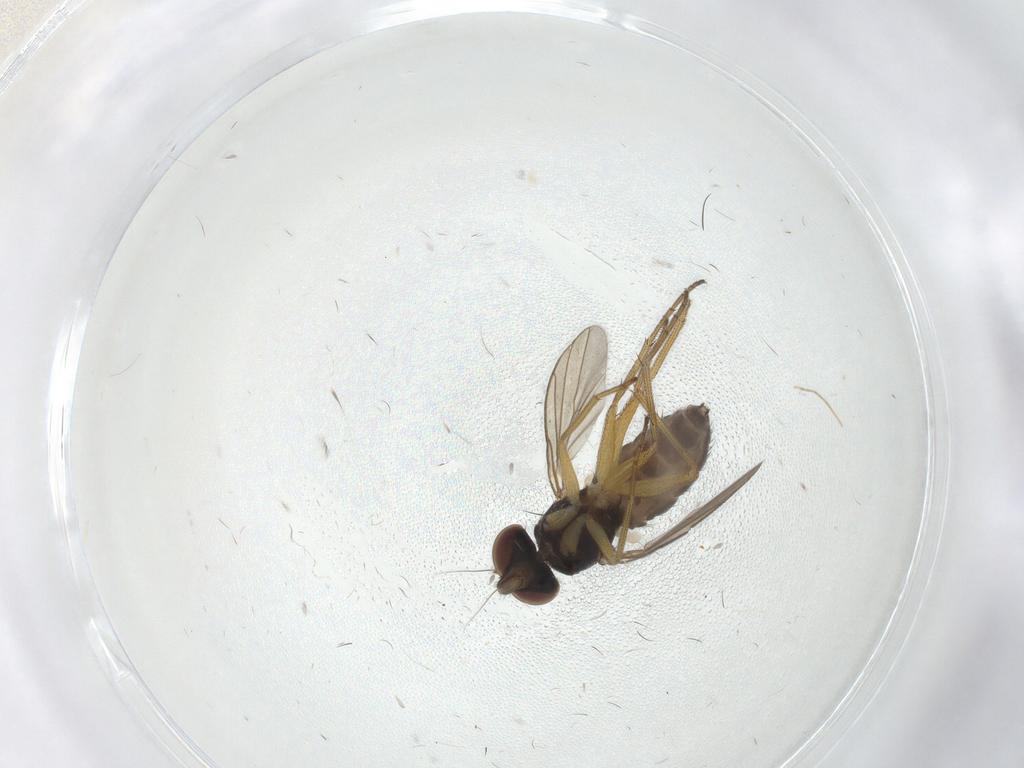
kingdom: Animalia
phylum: Arthropoda
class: Insecta
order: Diptera
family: Dolichopodidae
